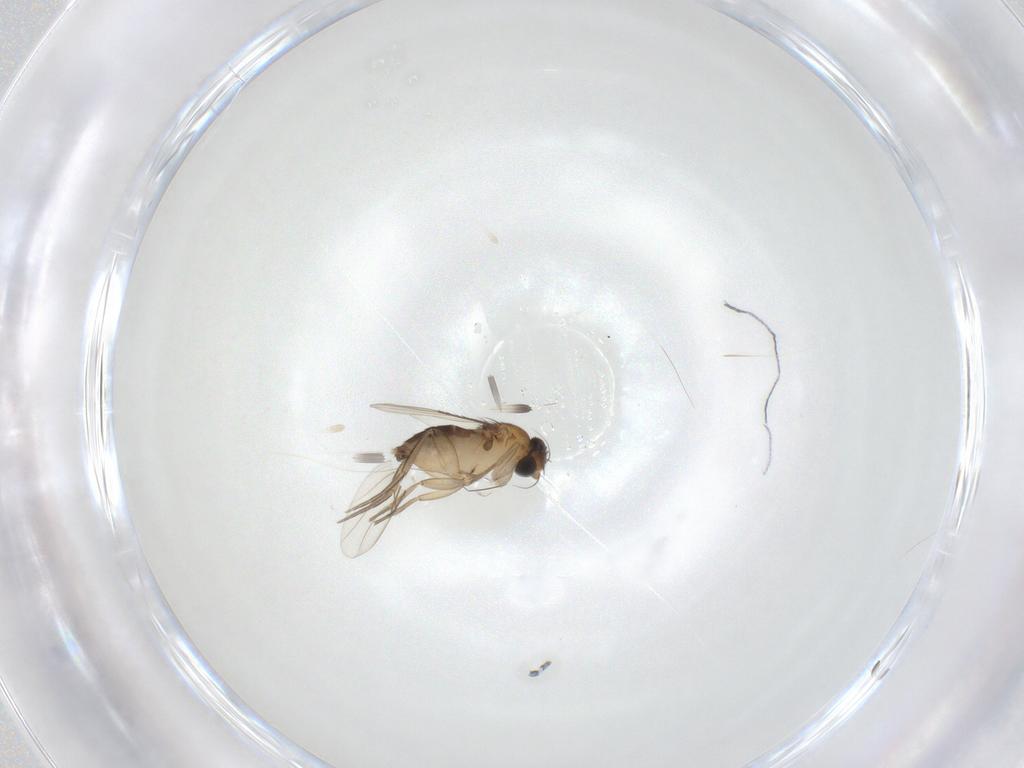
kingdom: Animalia
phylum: Arthropoda
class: Insecta
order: Diptera
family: Phoridae
